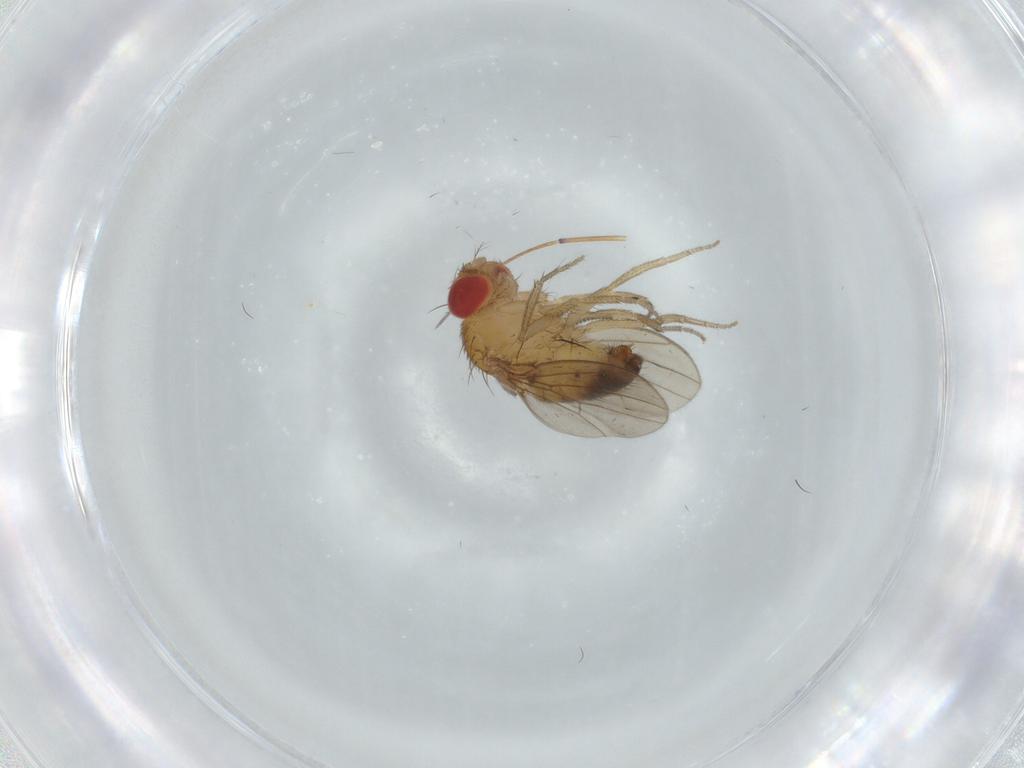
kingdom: Animalia
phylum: Arthropoda
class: Insecta
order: Diptera
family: Drosophilidae
